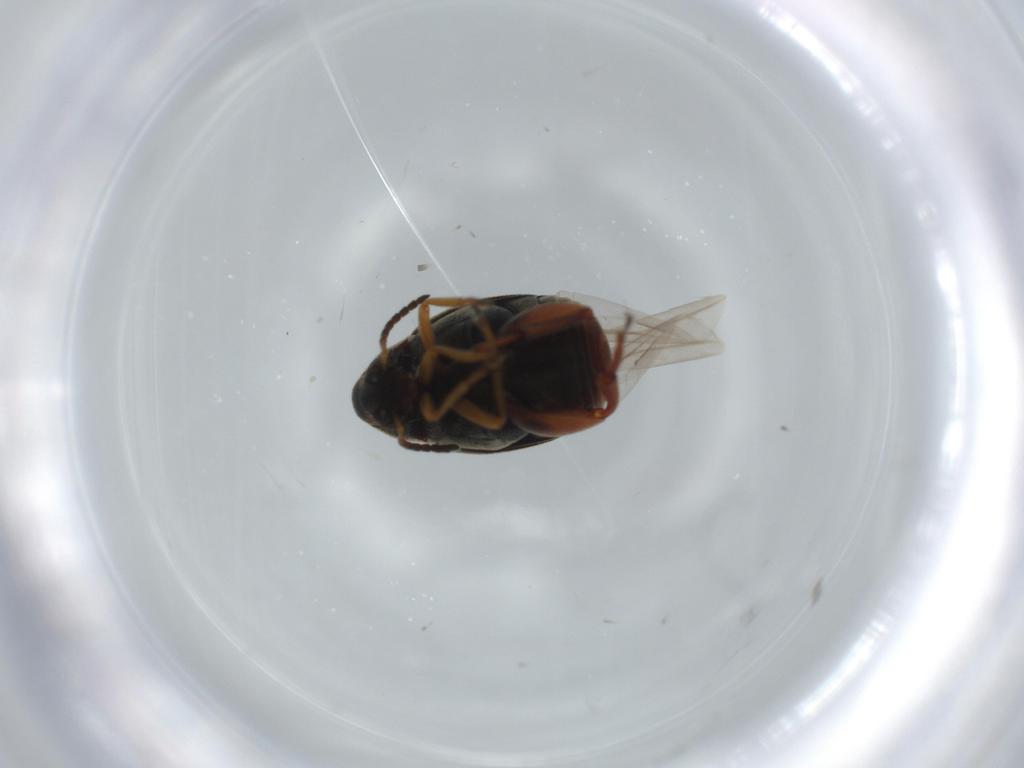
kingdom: Animalia
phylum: Arthropoda
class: Insecta
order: Coleoptera
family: Chrysomelidae
